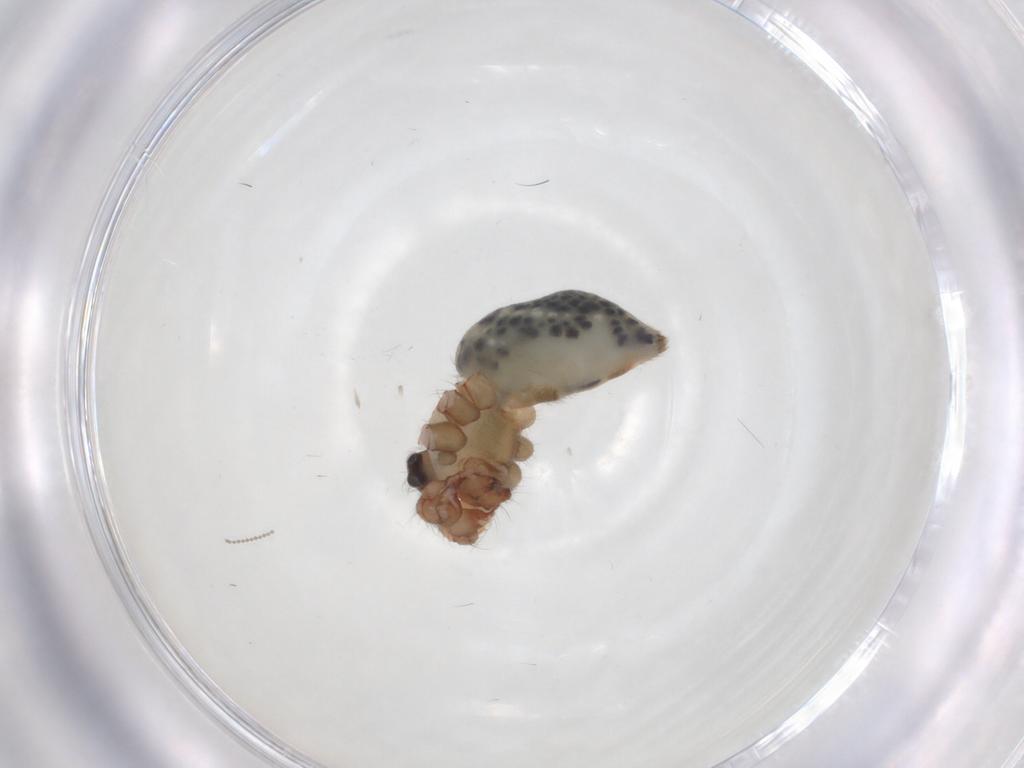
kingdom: Animalia
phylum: Arthropoda
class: Arachnida
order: Araneae
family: Pholcidae
